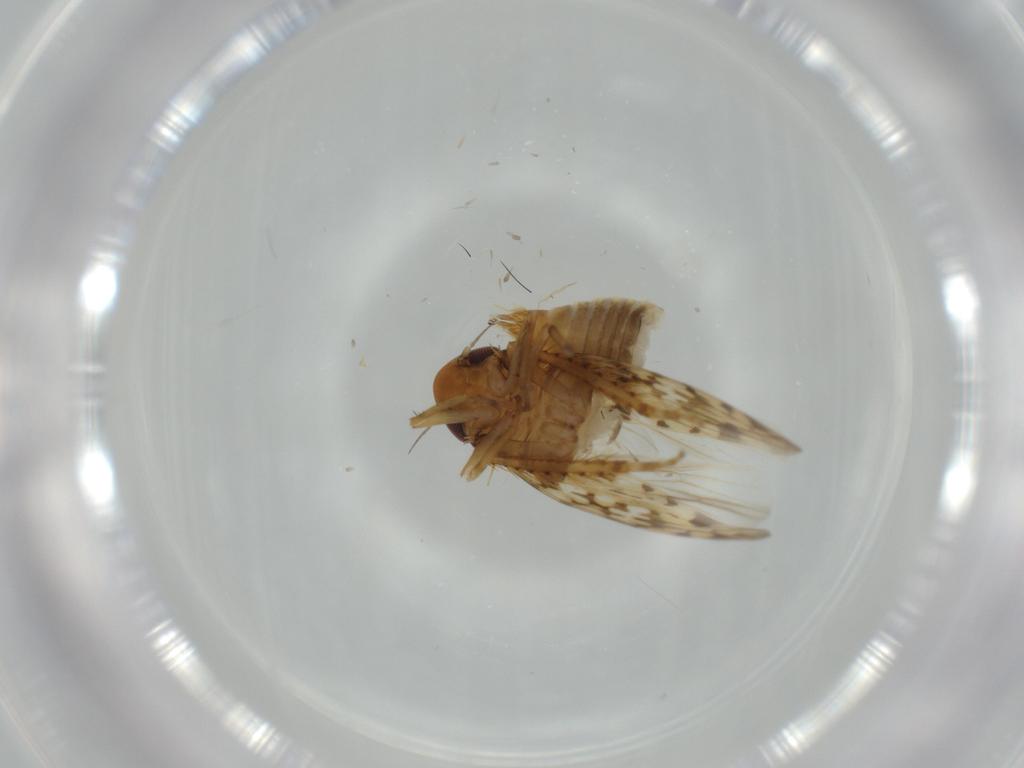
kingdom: Animalia
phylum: Arthropoda
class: Insecta
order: Hemiptera
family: Cicadellidae
